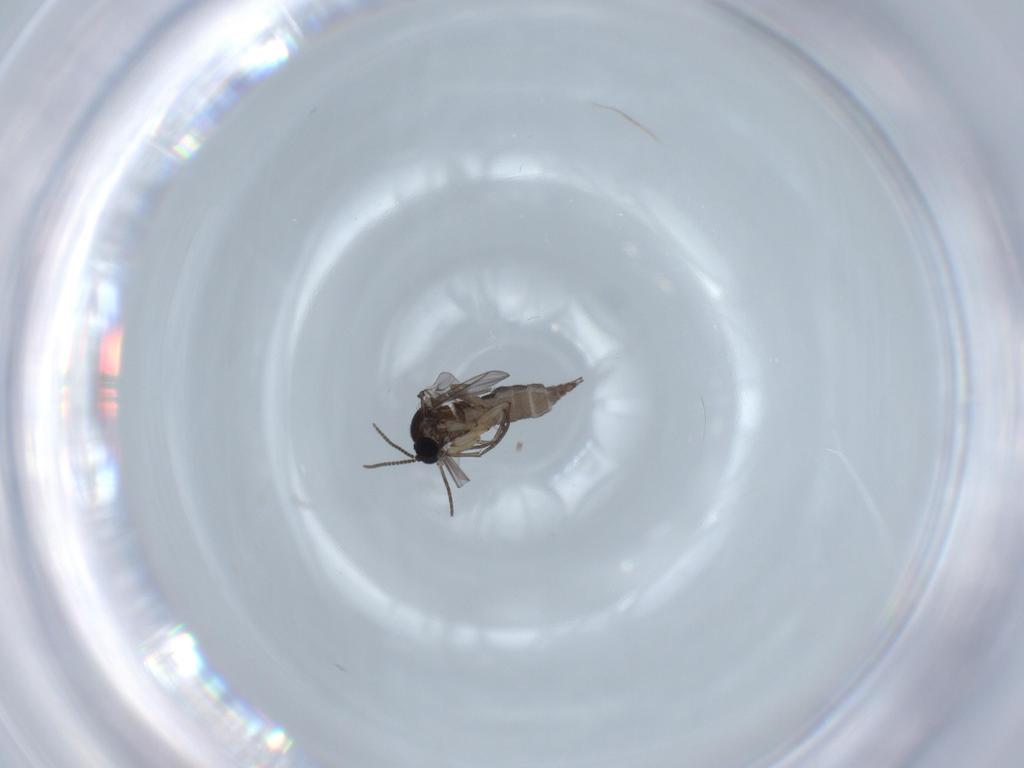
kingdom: Animalia
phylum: Arthropoda
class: Insecta
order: Diptera
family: Sciaridae
